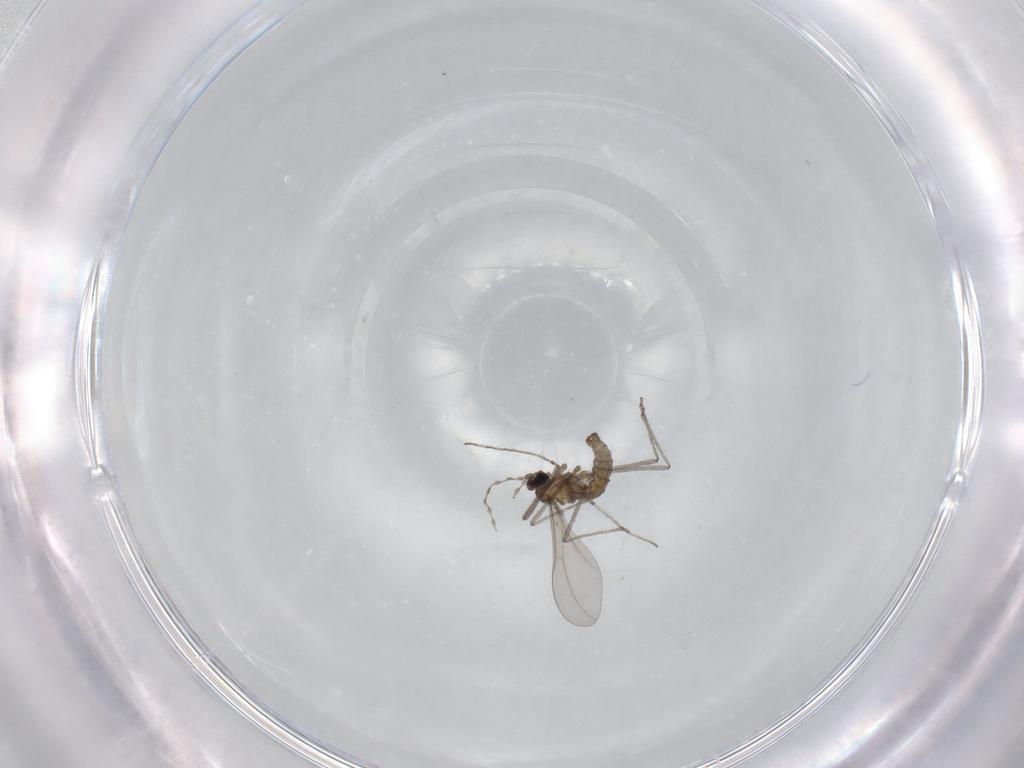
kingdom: Animalia
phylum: Arthropoda
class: Insecta
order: Diptera
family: Cecidomyiidae
